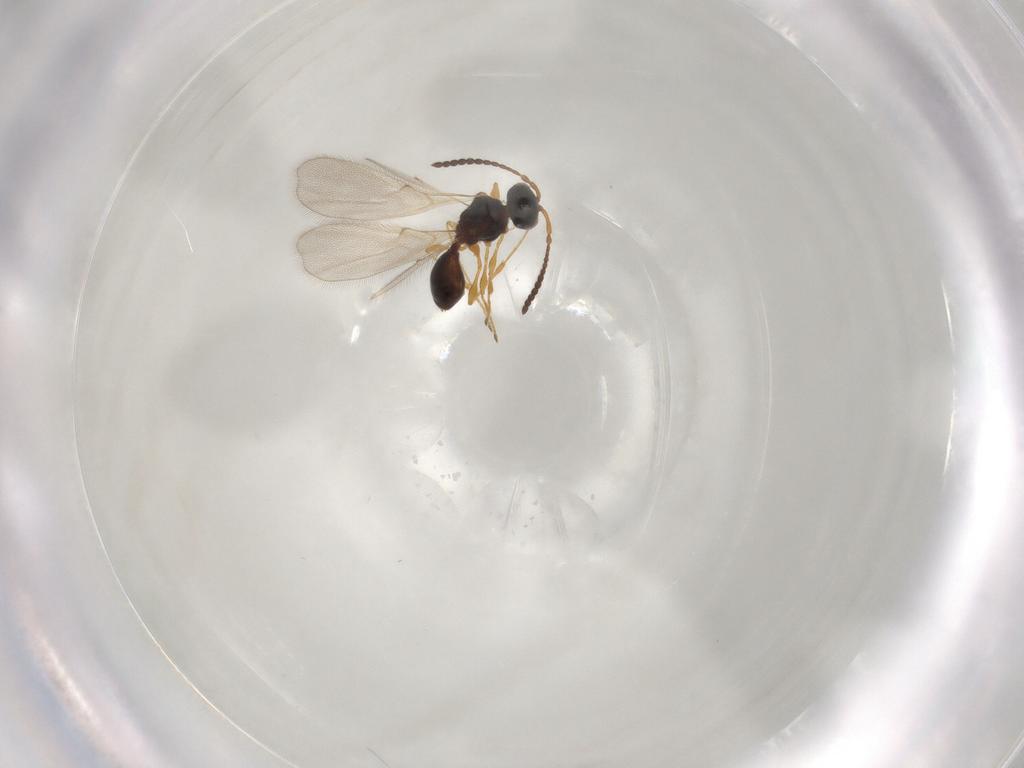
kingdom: Animalia
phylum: Arthropoda
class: Insecta
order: Hymenoptera
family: Diapriidae
